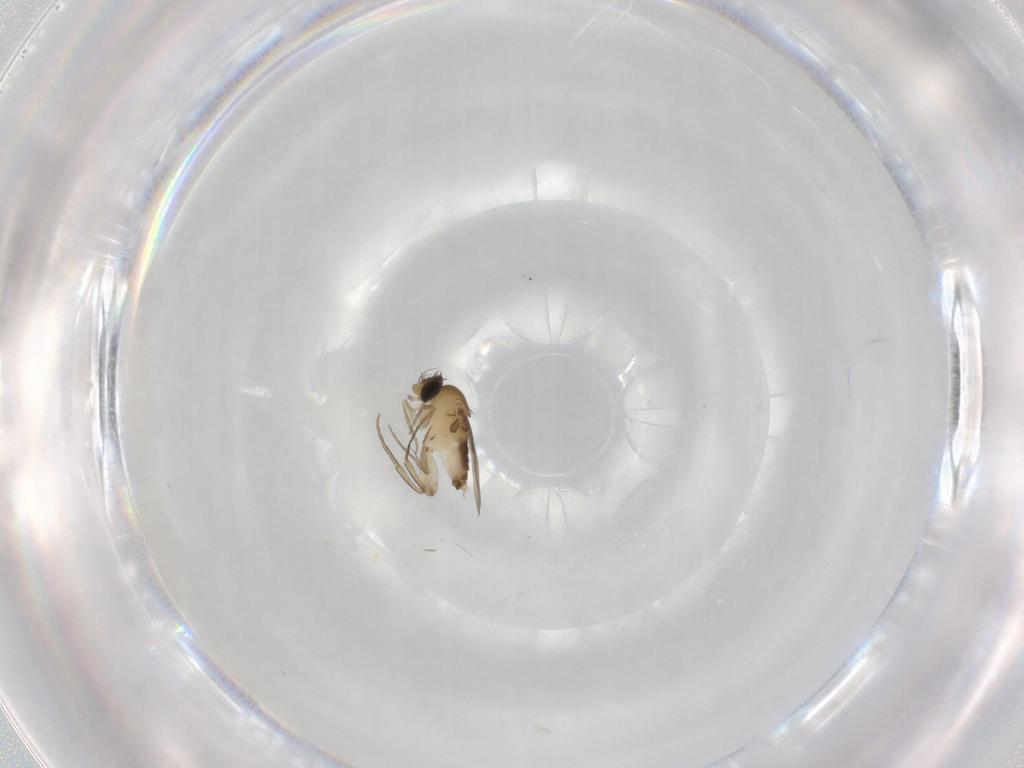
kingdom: Animalia
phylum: Arthropoda
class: Insecta
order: Diptera
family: Phoridae
